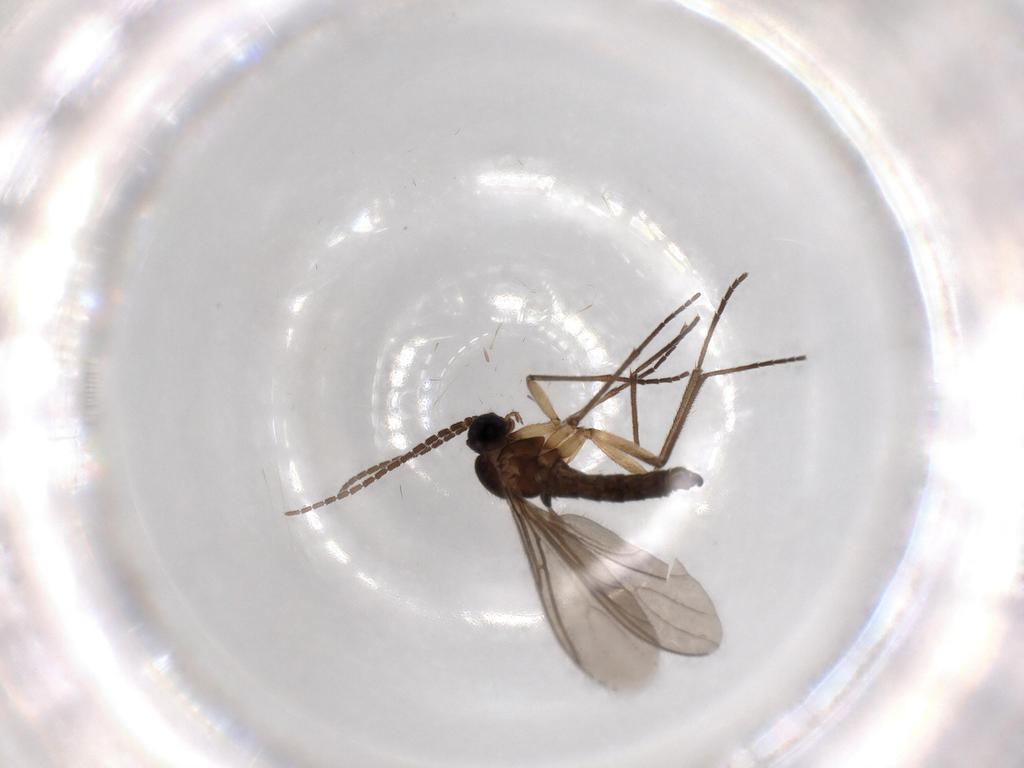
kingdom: Animalia
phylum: Arthropoda
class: Insecta
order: Diptera
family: Sciaridae
